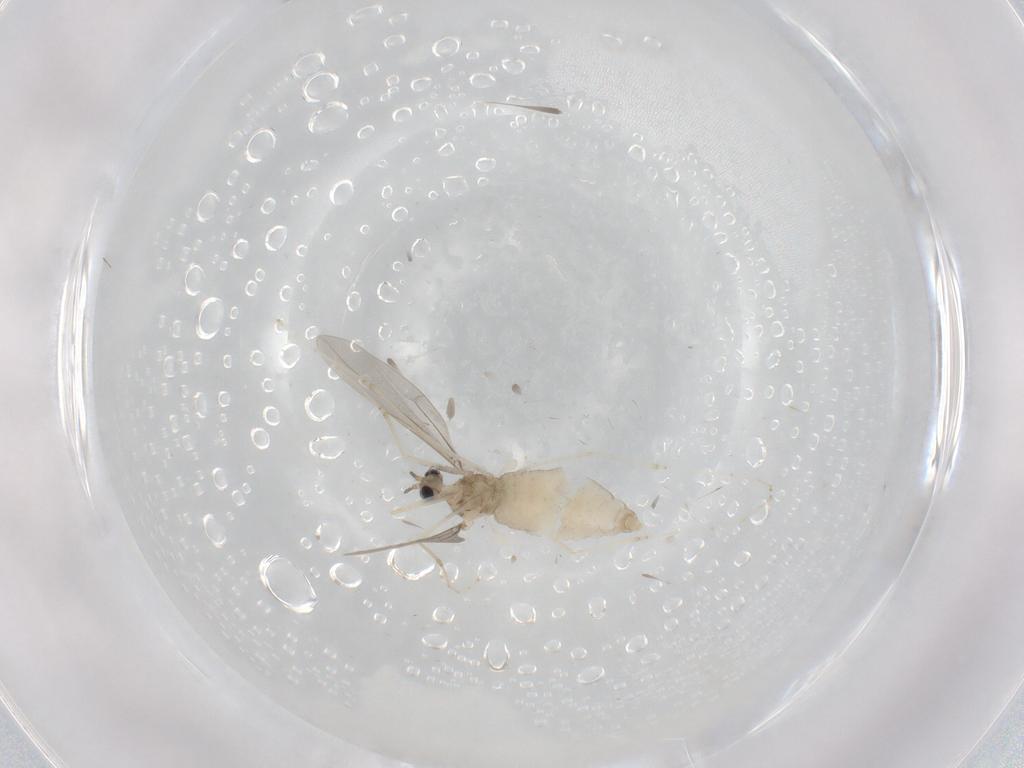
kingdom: Animalia
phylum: Arthropoda
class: Insecta
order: Diptera
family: Cecidomyiidae
